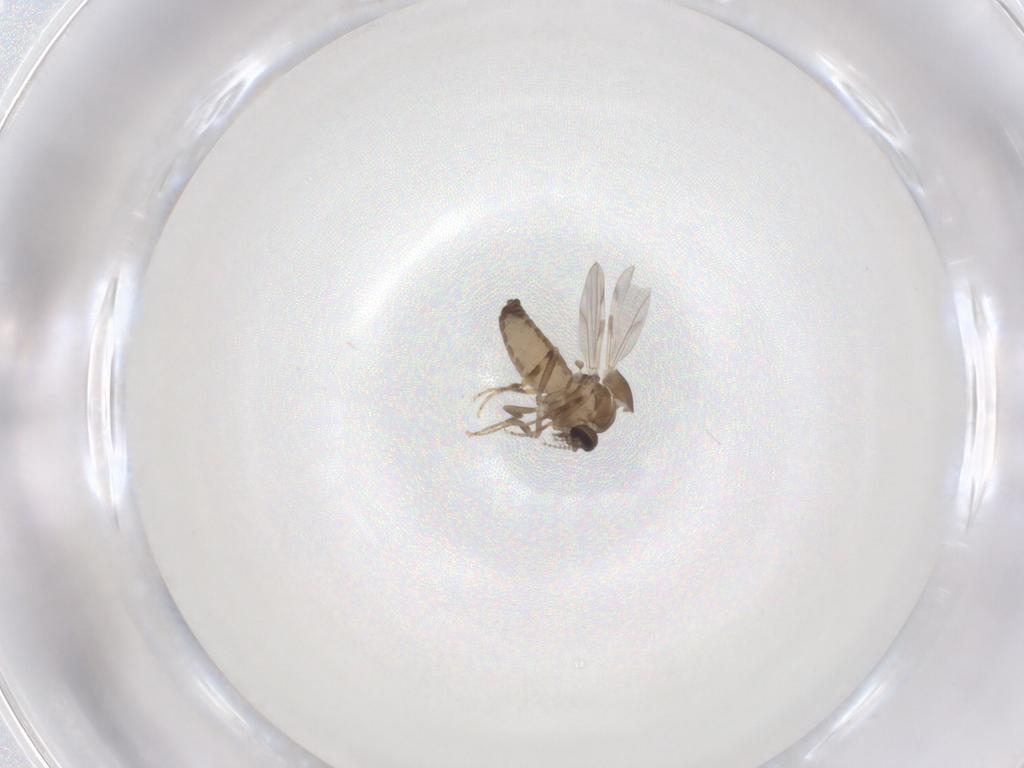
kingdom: Animalia
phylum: Arthropoda
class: Insecta
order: Diptera
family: Ceratopogonidae
